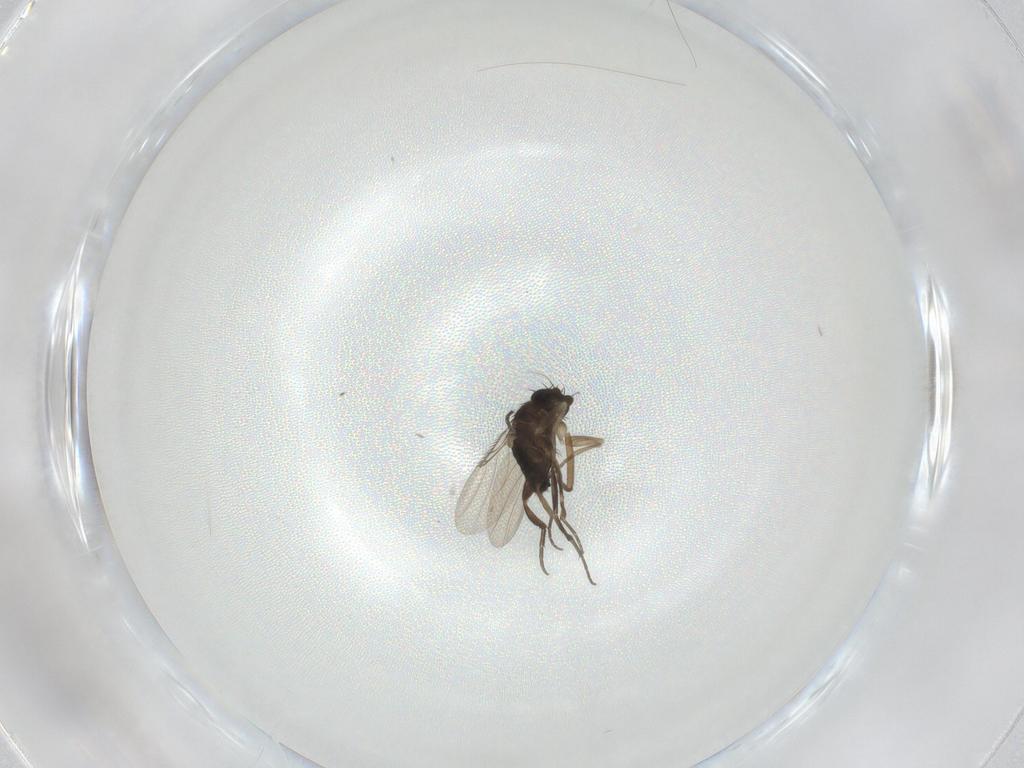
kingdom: Animalia
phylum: Arthropoda
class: Insecta
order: Diptera
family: Phoridae
